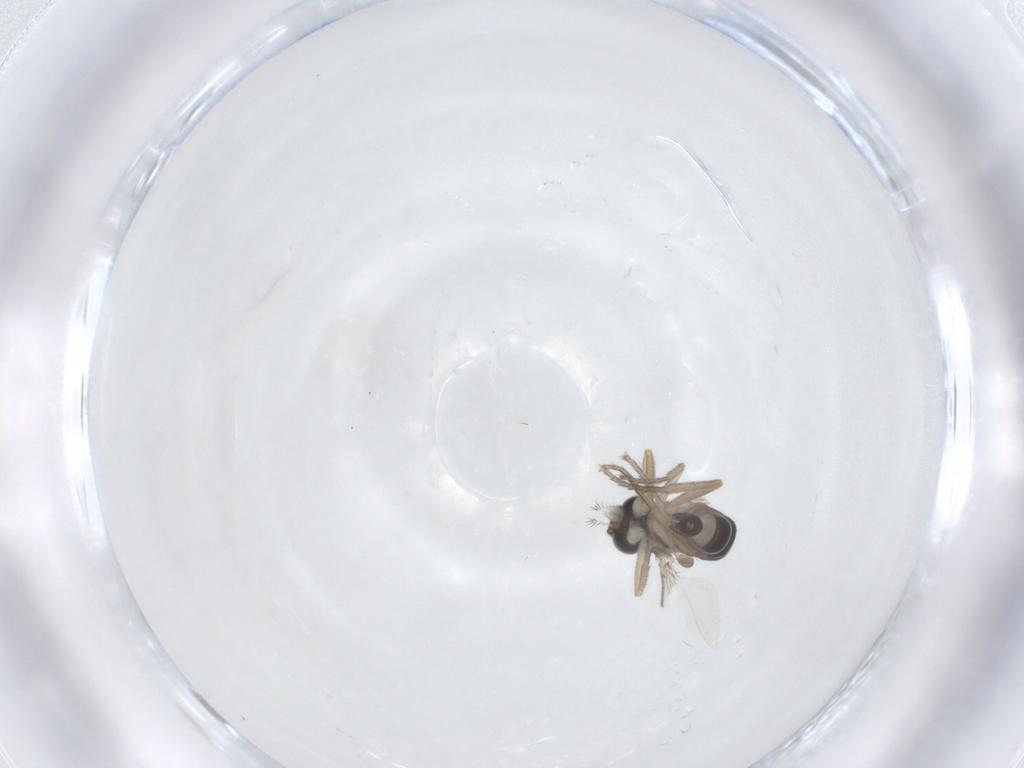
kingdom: Animalia
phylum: Arthropoda
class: Insecta
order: Diptera
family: Phoridae
